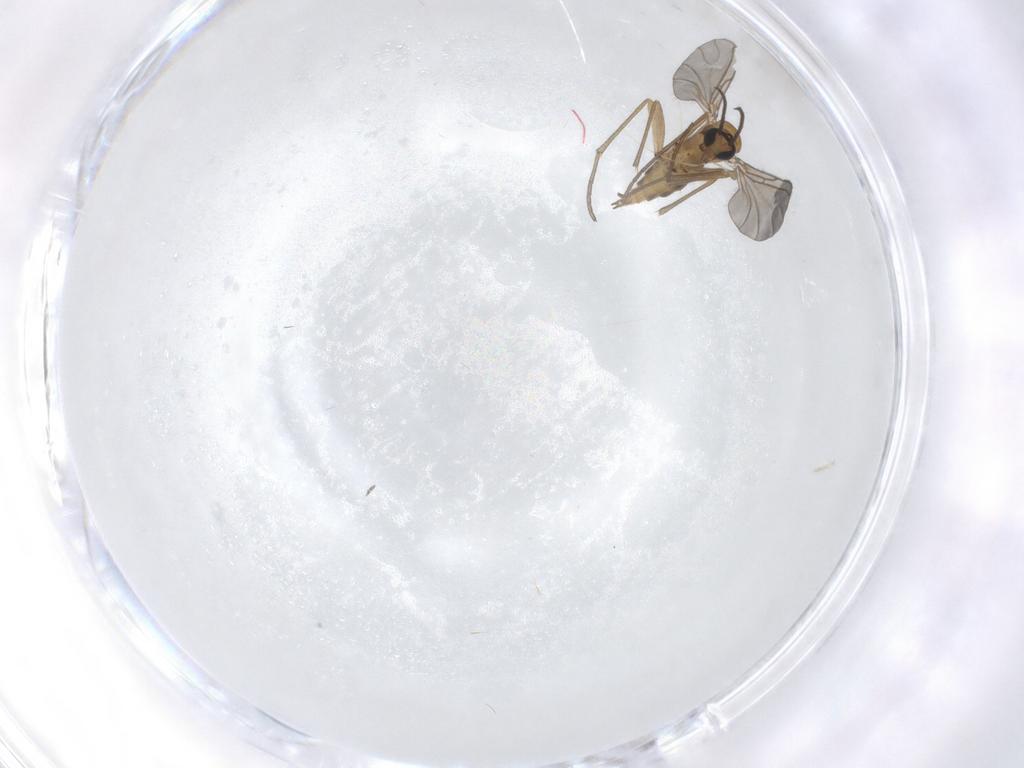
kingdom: Animalia
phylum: Arthropoda
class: Insecta
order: Diptera
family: Sciaridae
